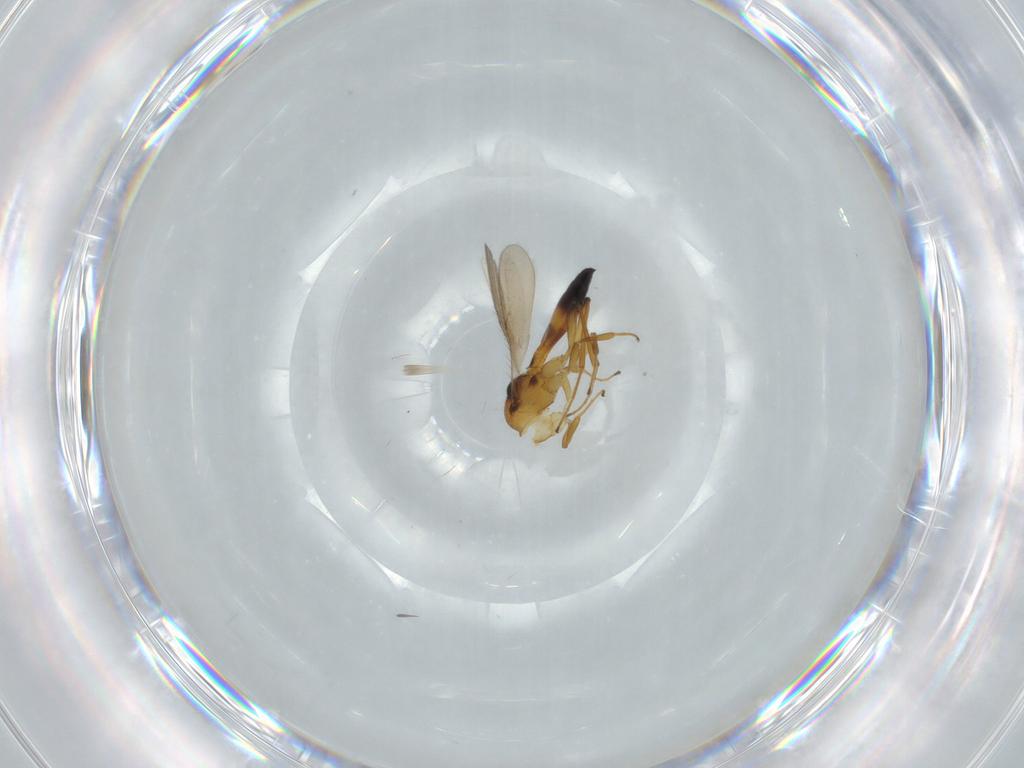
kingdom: Animalia
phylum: Arthropoda
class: Insecta
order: Hymenoptera
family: Scelionidae
